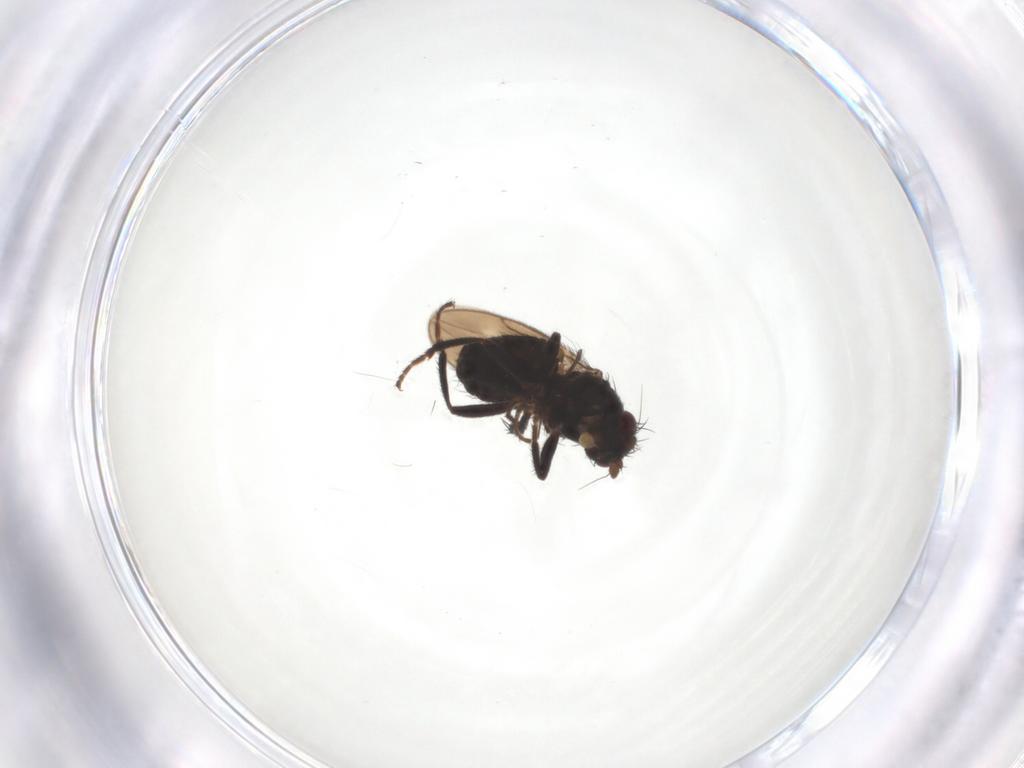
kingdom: Animalia
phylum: Arthropoda
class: Insecta
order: Diptera
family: Sphaeroceridae
